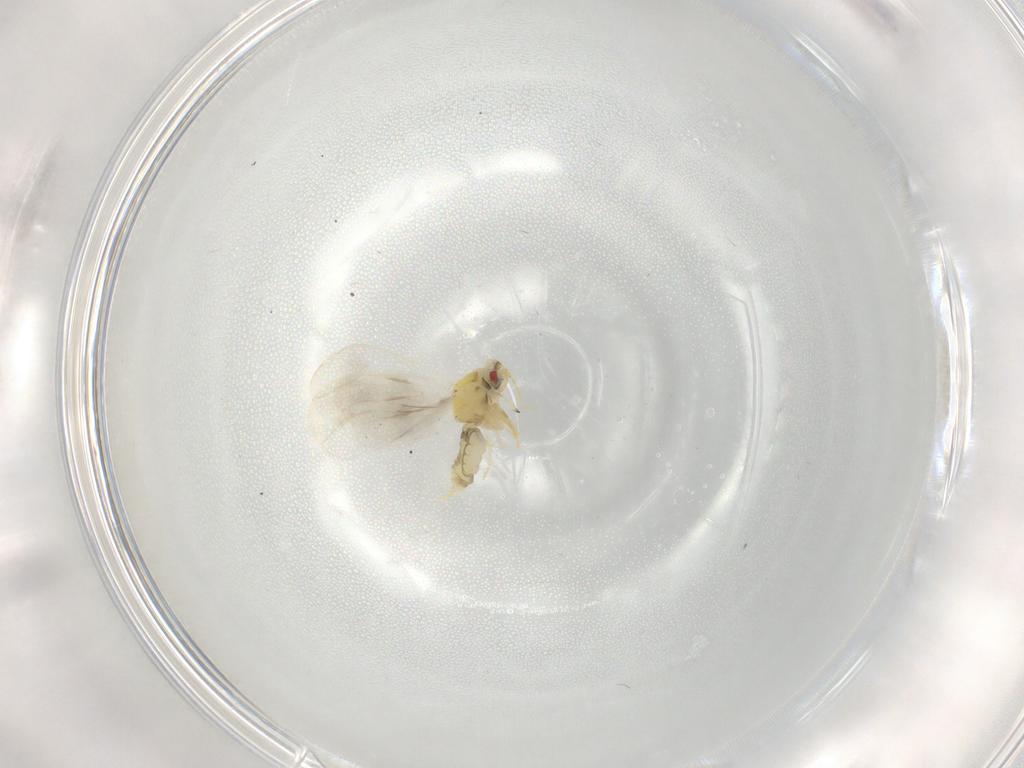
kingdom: Animalia
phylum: Arthropoda
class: Insecta
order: Hemiptera
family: Aleyrodidae
